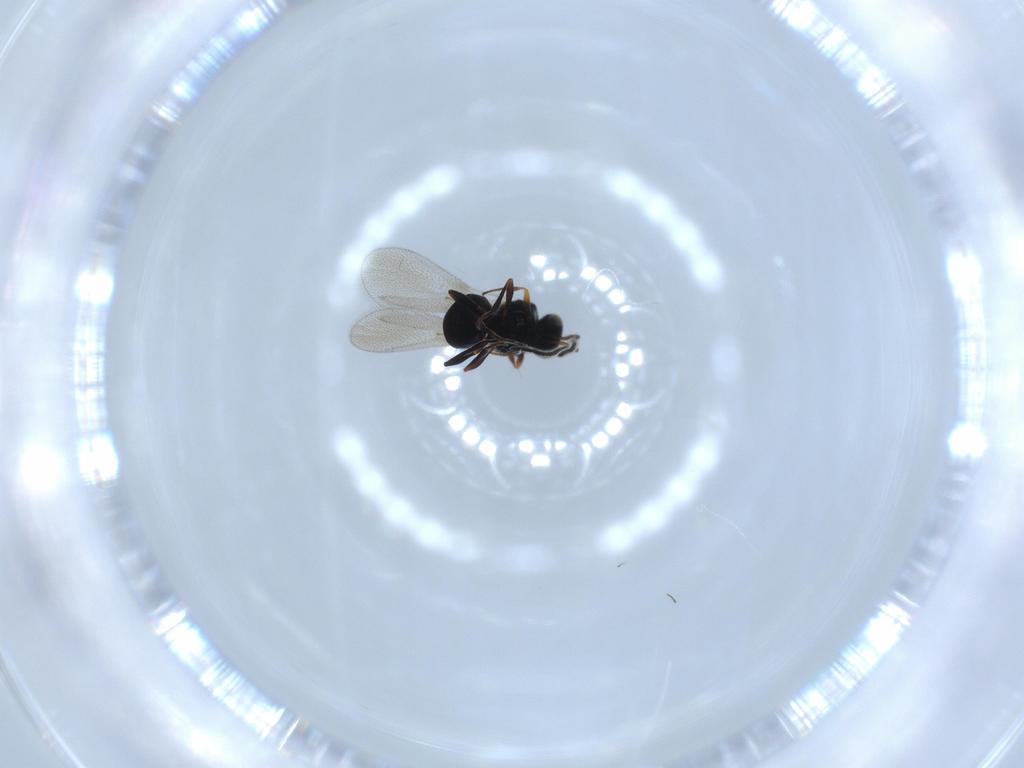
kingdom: Animalia
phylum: Arthropoda
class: Insecta
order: Hymenoptera
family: Platygastridae
